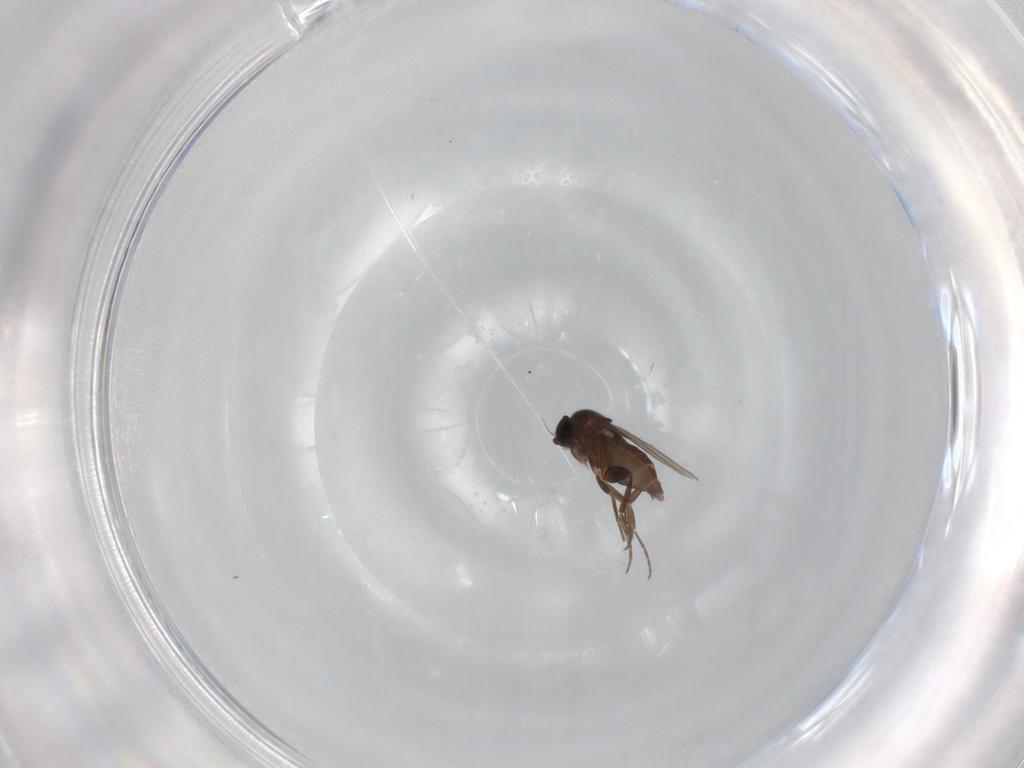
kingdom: Animalia
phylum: Arthropoda
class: Insecta
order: Diptera
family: Phoridae
